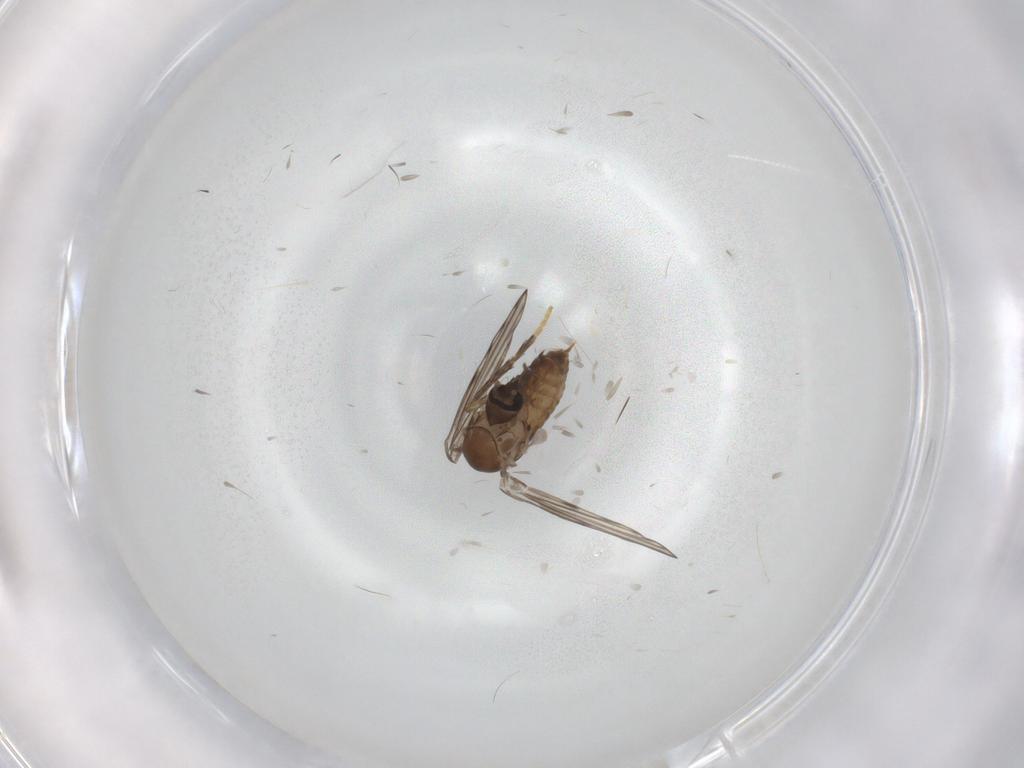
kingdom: Animalia
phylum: Arthropoda
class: Insecta
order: Diptera
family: Psychodidae
